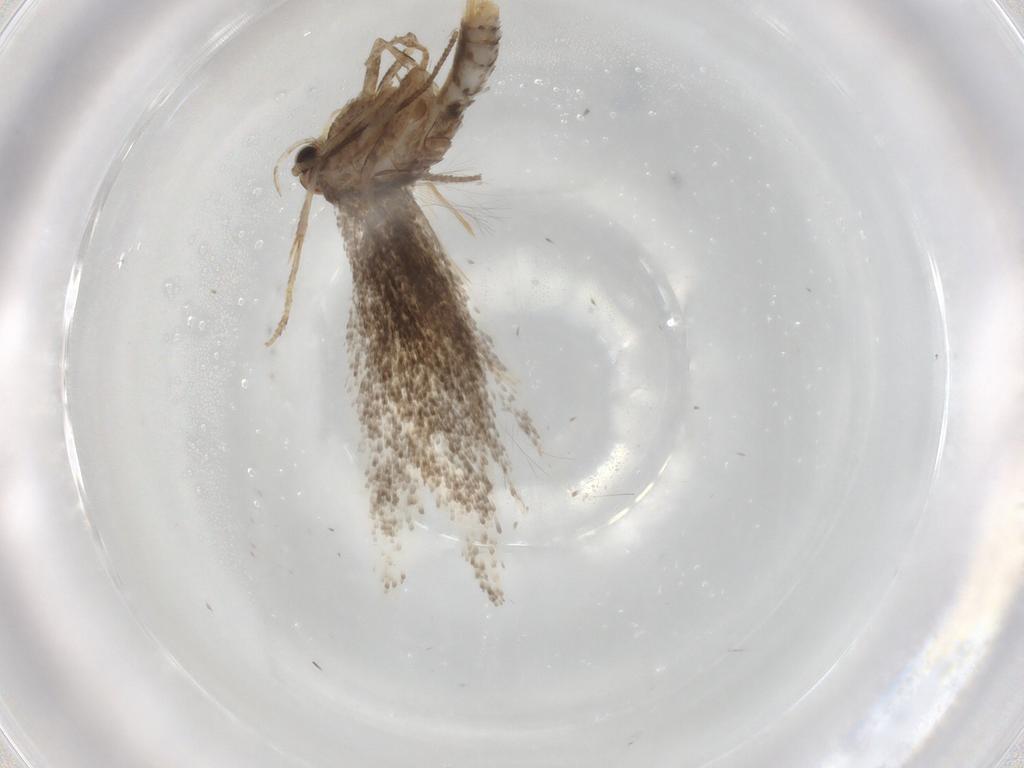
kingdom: Animalia
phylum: Arthropoda
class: Insecta
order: Lepidoptera
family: Elachistidae
